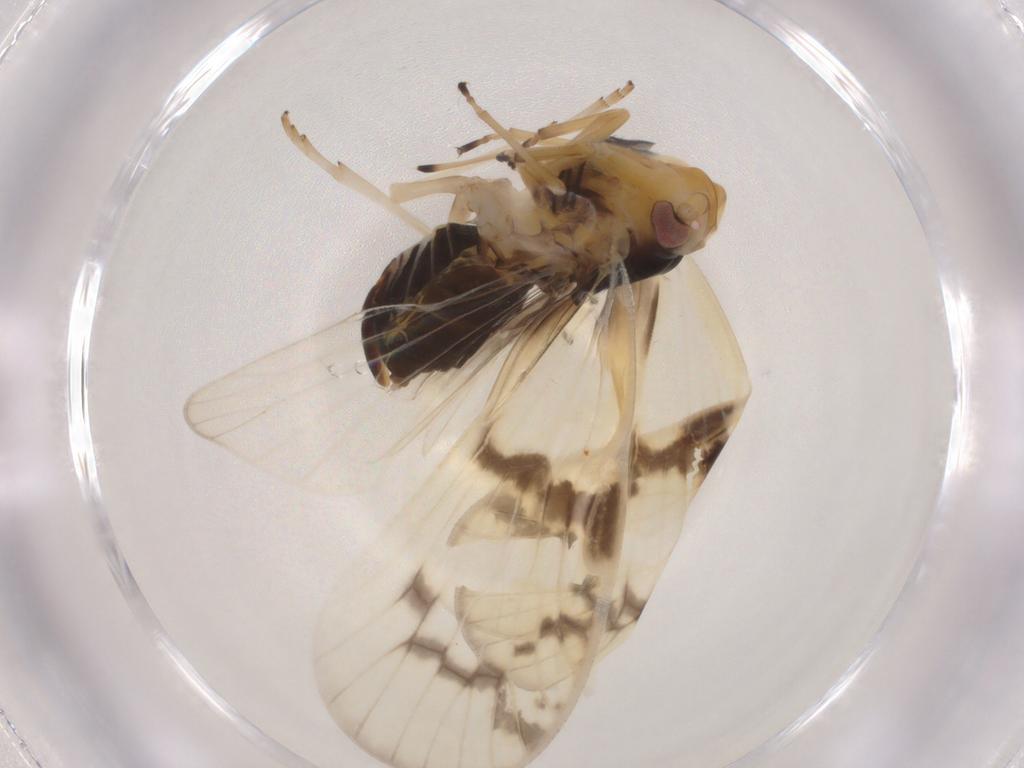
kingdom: Animalia
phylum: Arthropoda
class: Insecta
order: Hemiptera
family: Cixiidae
